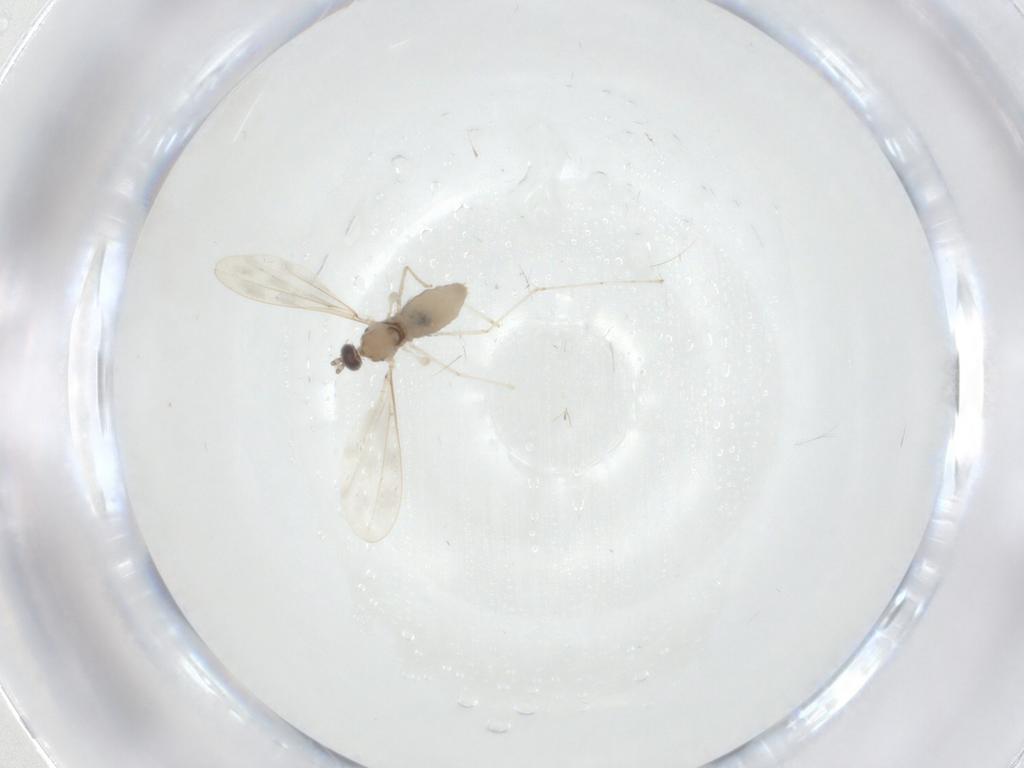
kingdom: Animalia
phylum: Arthropoda
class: Insecta
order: Diptera
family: Cecidomyiidae
